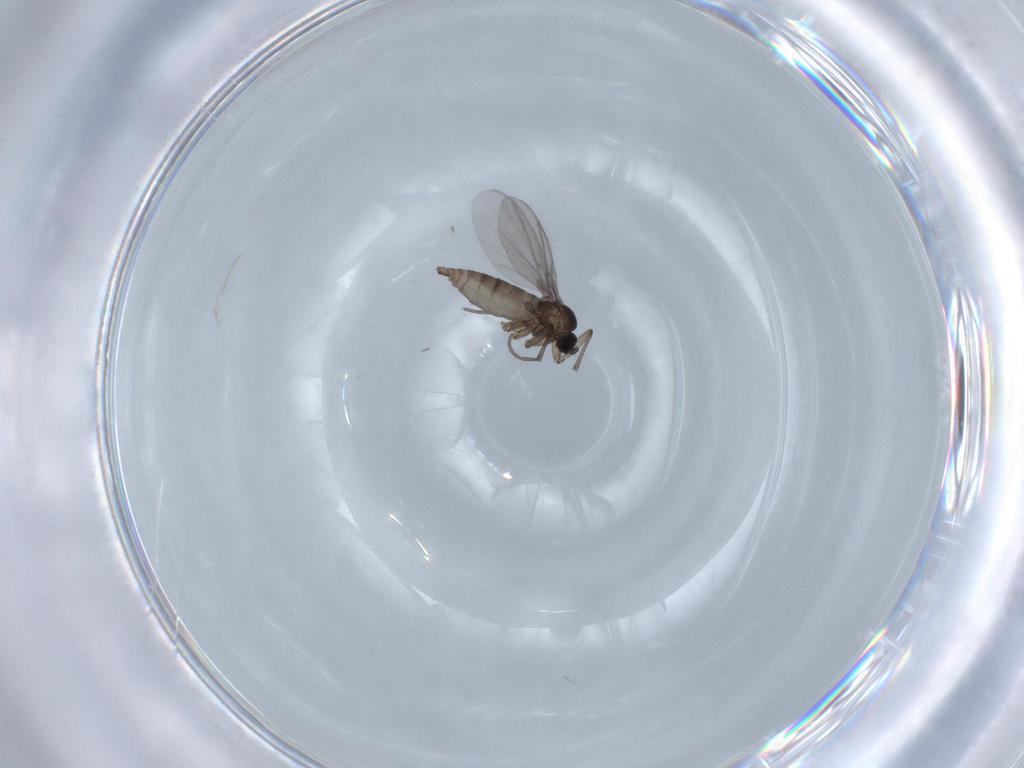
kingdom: Animalia
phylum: Arthropoda
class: Insecta
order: Diptera
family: Sciaridae
